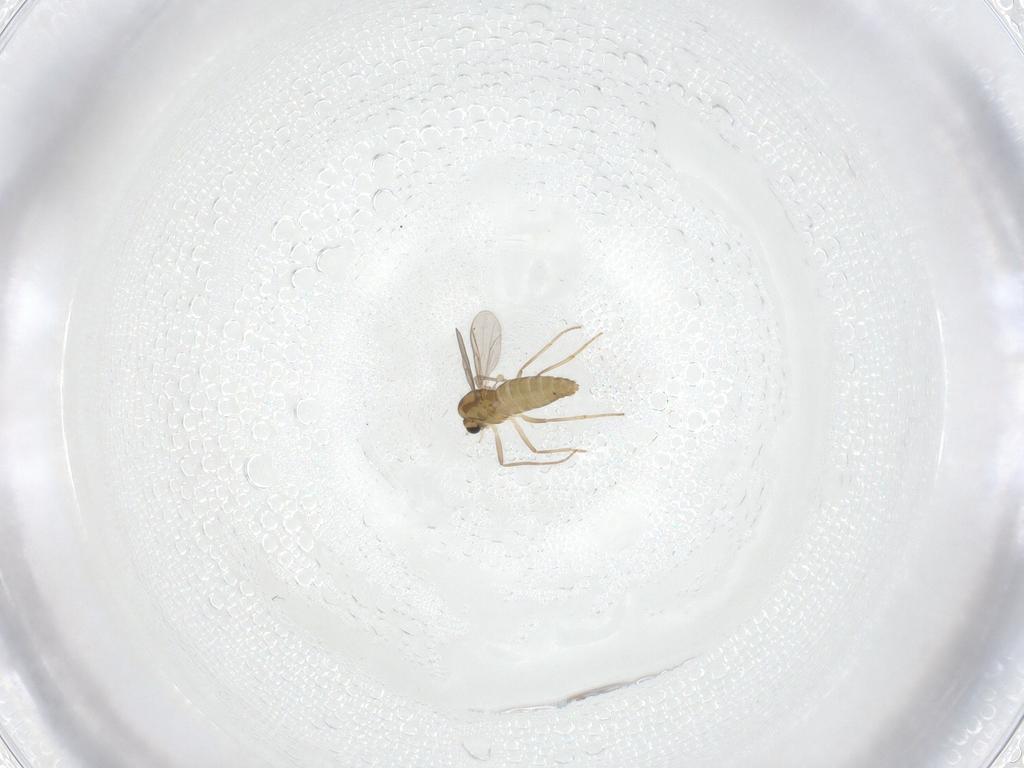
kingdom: Animalia
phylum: Arthropoda
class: Insecta
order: Diptera
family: Chironomidae
